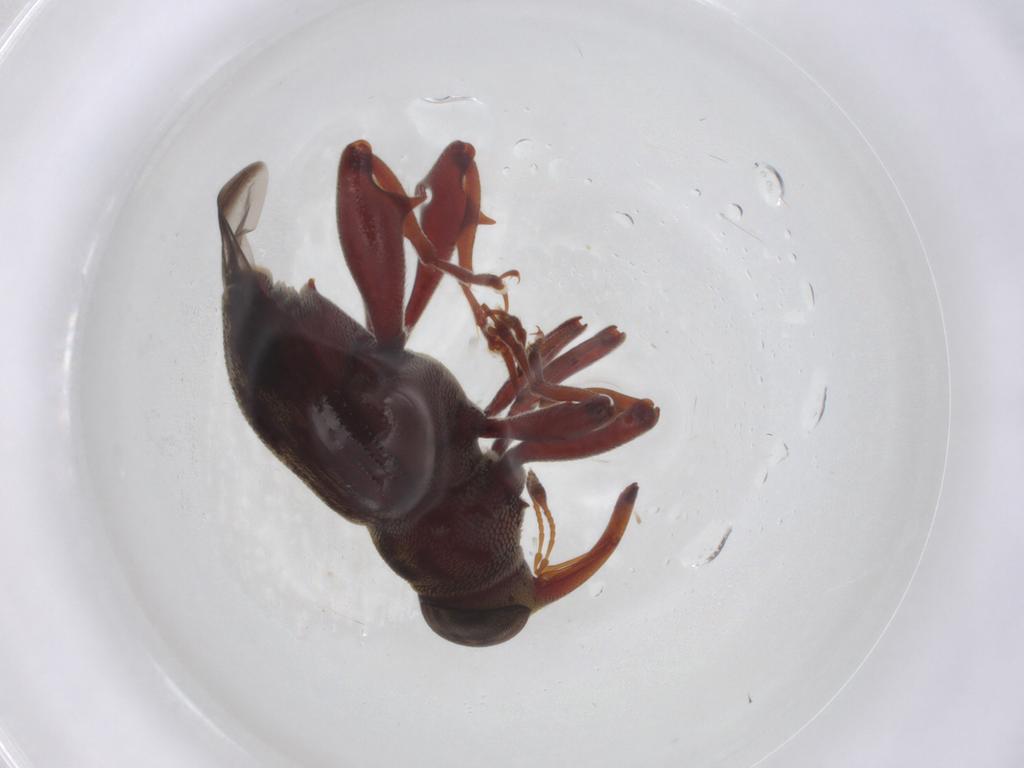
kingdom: Animalia
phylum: Arthropoda
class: Insecta
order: Coleoptera
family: Curculionidae
